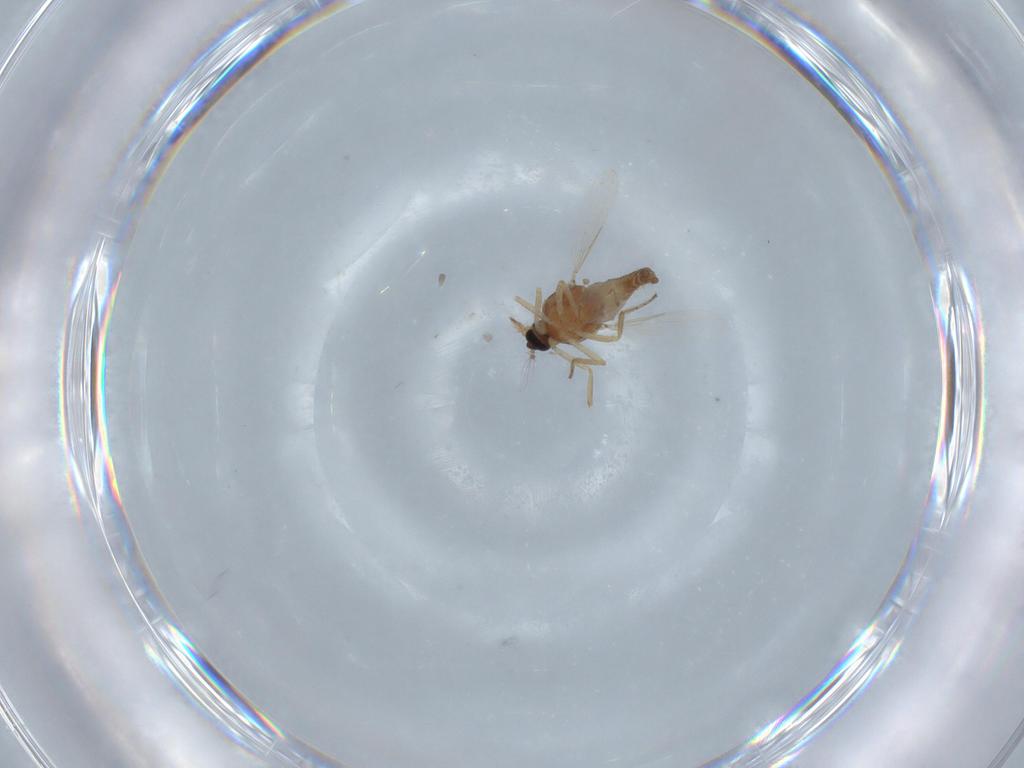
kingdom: Animalia
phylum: Arthropoda
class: Insecta
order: Diptera
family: Ceratopogonidae
